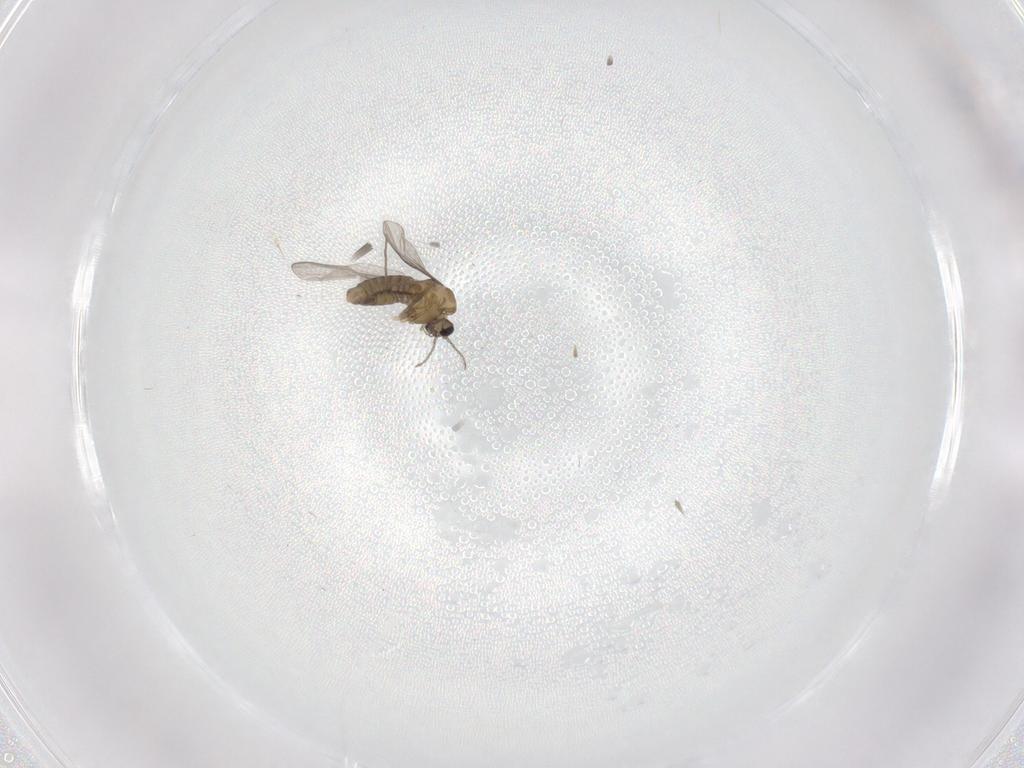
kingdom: Animalia
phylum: Arthropoda
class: Insecta
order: Diptera
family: Chironomidae
